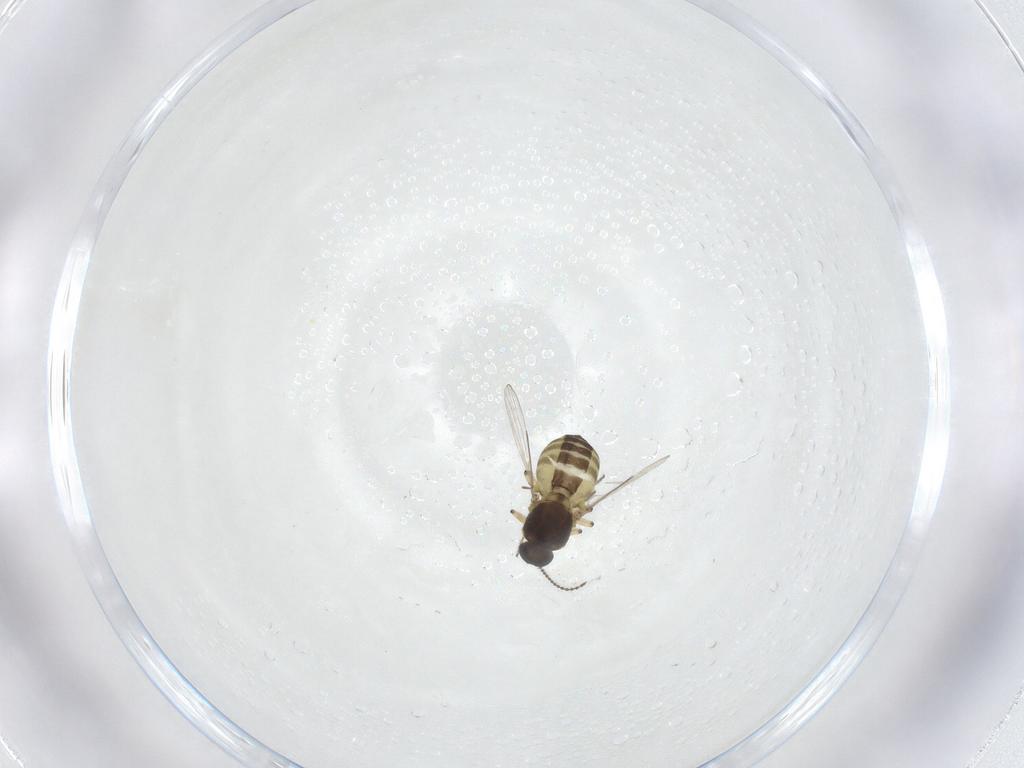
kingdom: Animalia
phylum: Arthropoda
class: Insecta
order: Diptera
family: Ceratopogonidae
